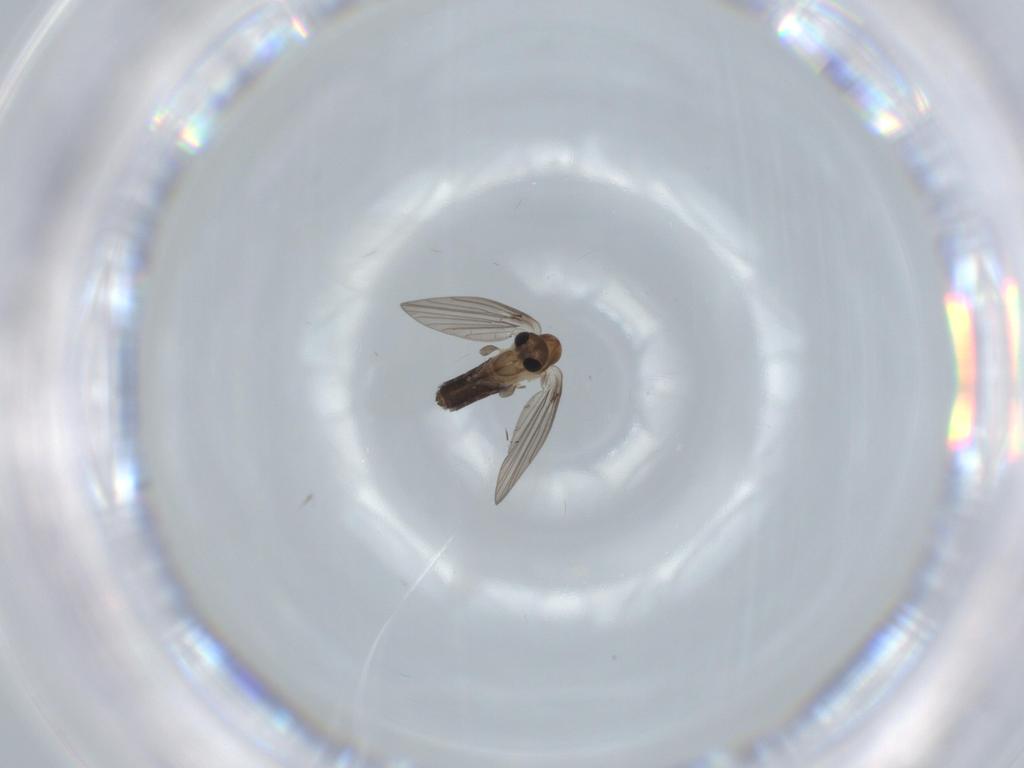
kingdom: Animalia
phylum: Arthropoda
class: Insecta
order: Diptera
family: Psychodidae
